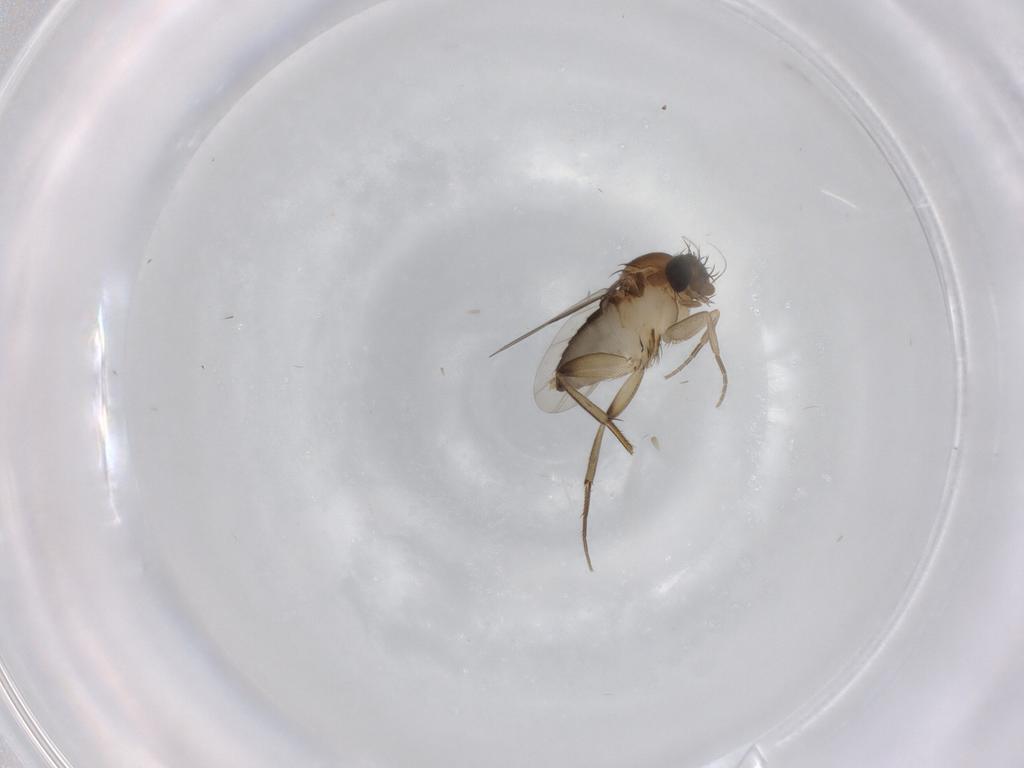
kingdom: Animalia
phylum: Arthropoda
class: Insecta
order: Diptera
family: Phoridae
